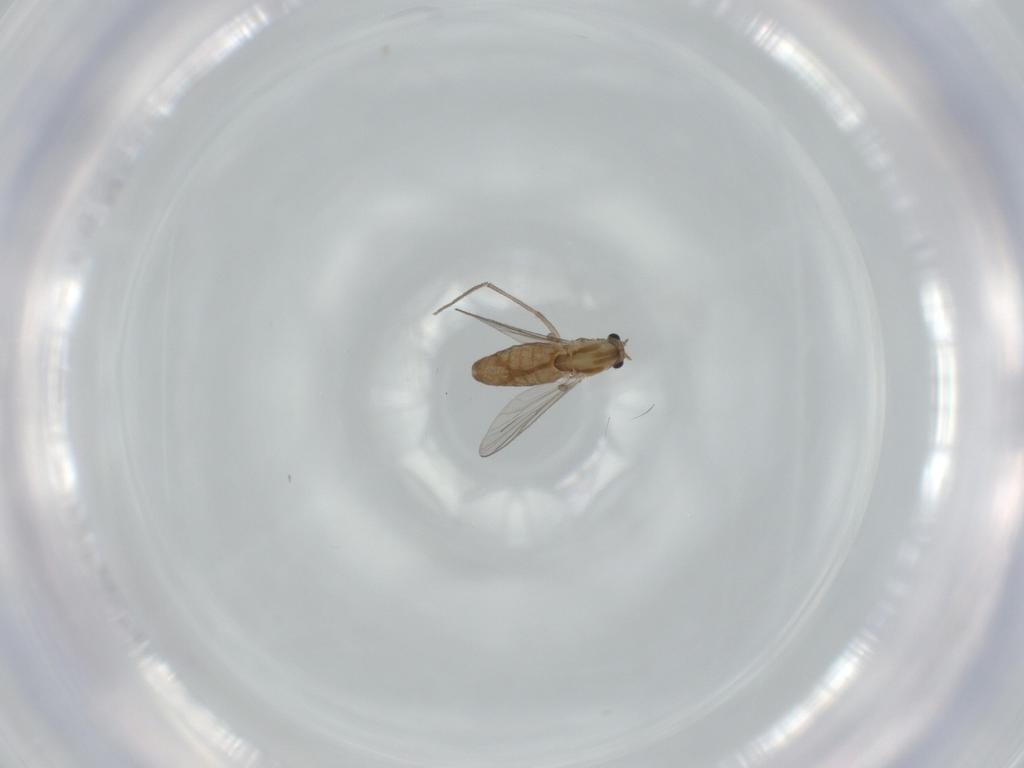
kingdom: Animalia
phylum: Arthropoda
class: Insecta
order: Diptera
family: Chironomidae
